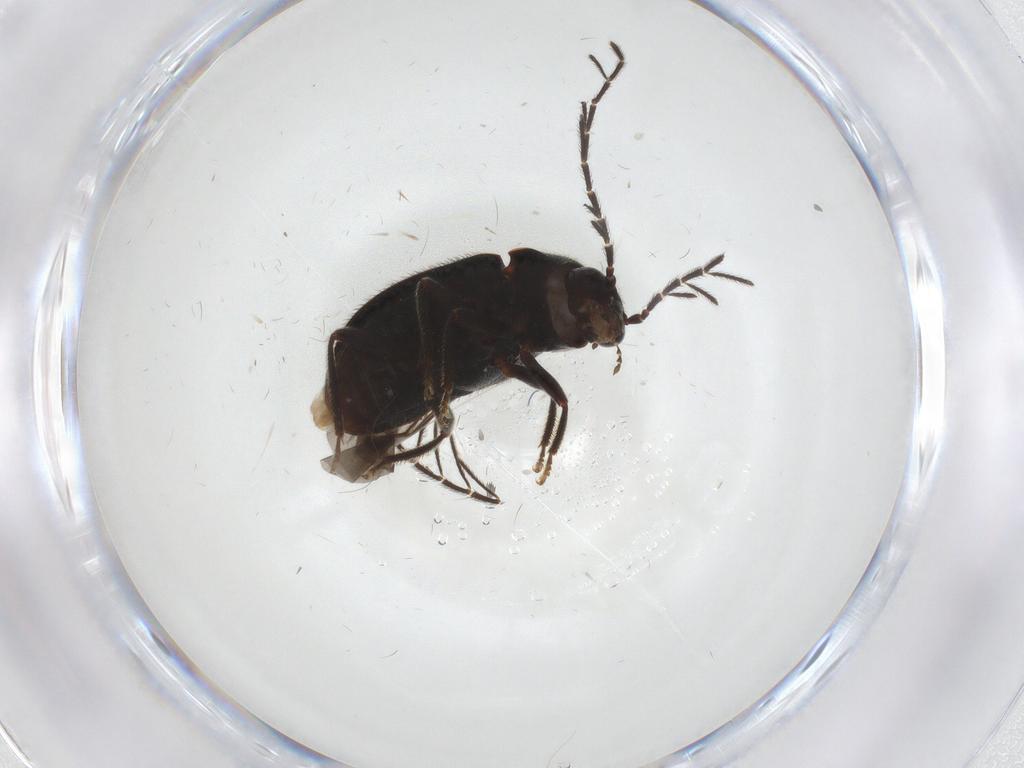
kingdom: Animalia
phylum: Arthropoda
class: Insecta
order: Coleoptera
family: Ptilodactylidae
